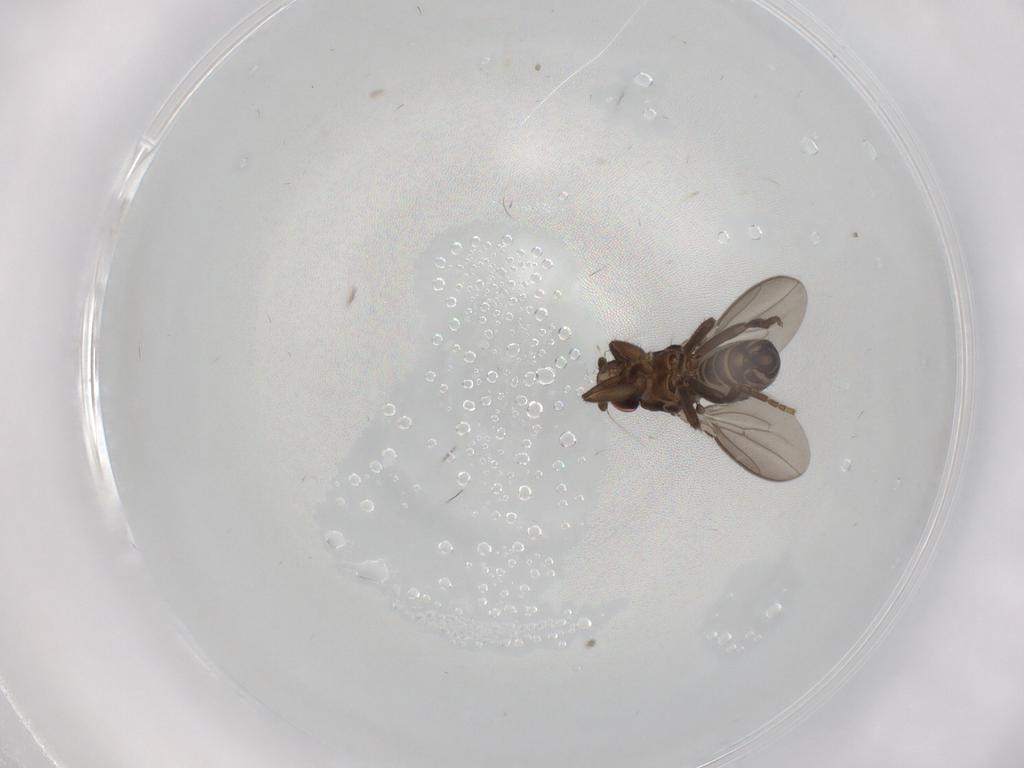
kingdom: Animalia
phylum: Arthropoda
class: Insecta
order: Diptera
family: Sphaeroceridae
